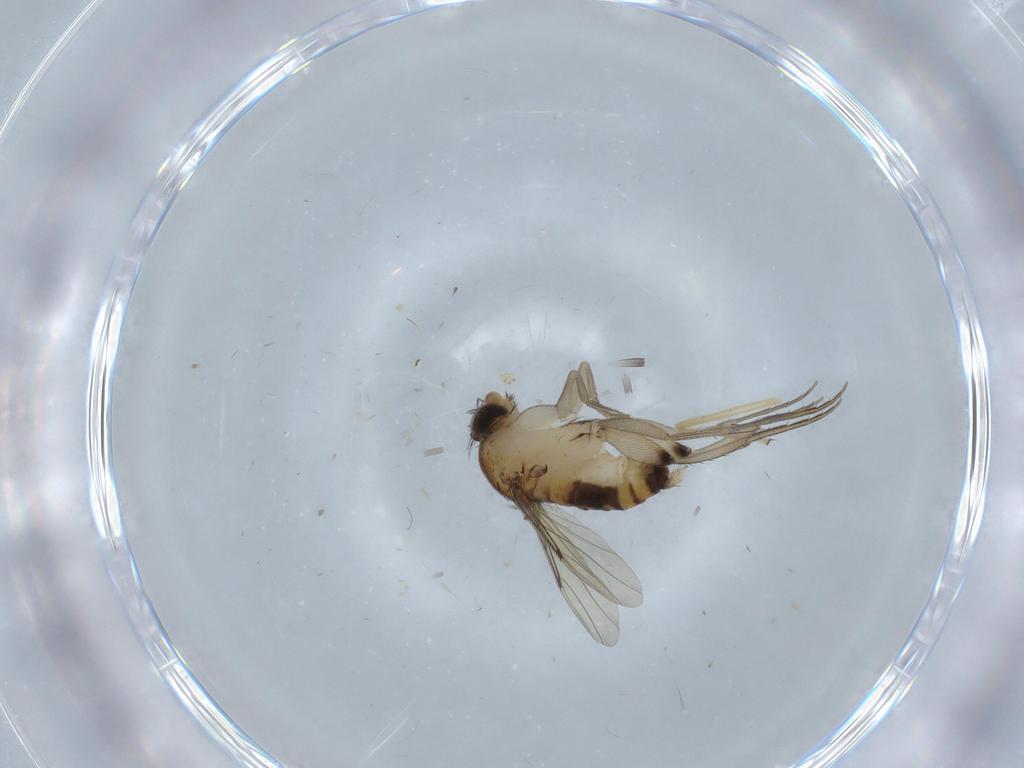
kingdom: Animalia
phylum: Arthropoda
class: Insecta
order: Diptera
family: Phoridae
